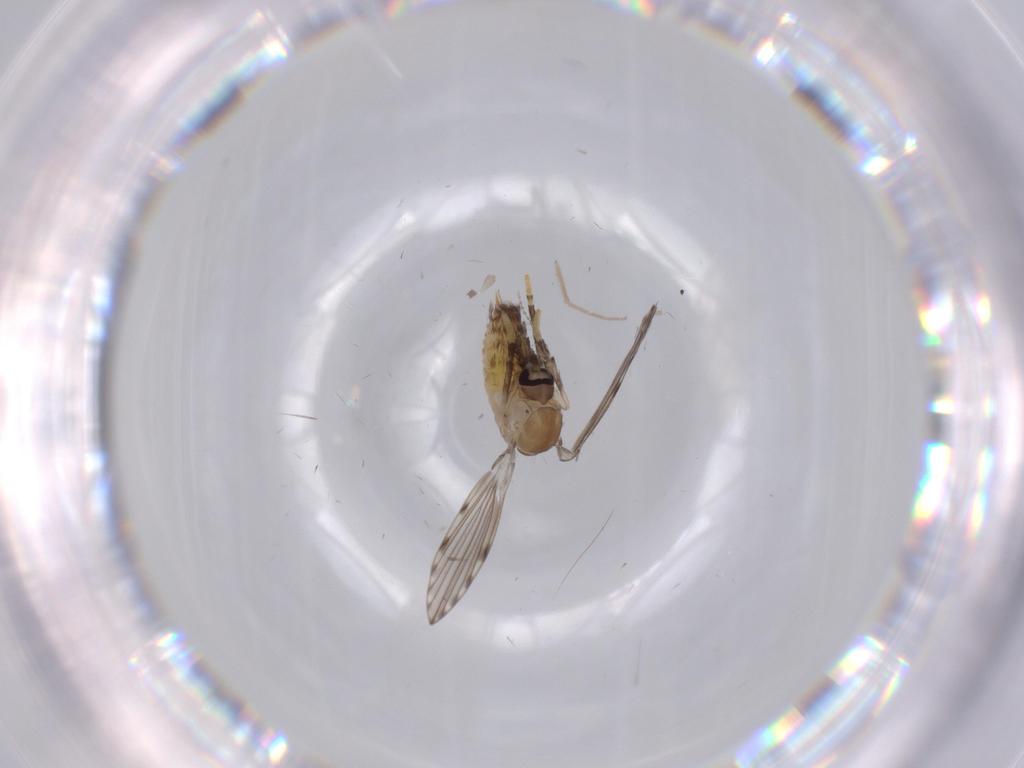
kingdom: Animalia
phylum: Arthropoda
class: Insecta
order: Diptera
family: Psychodidae
